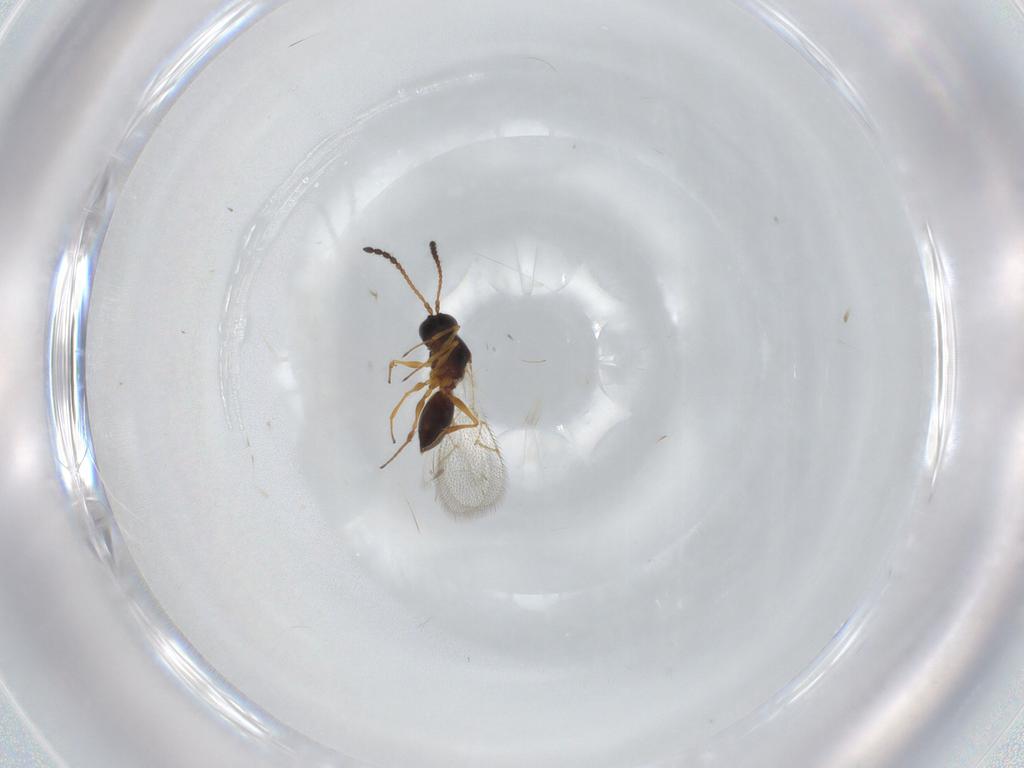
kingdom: Animalia
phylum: Arthropoda
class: Insecta
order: Hymenoptera
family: Figitidae
